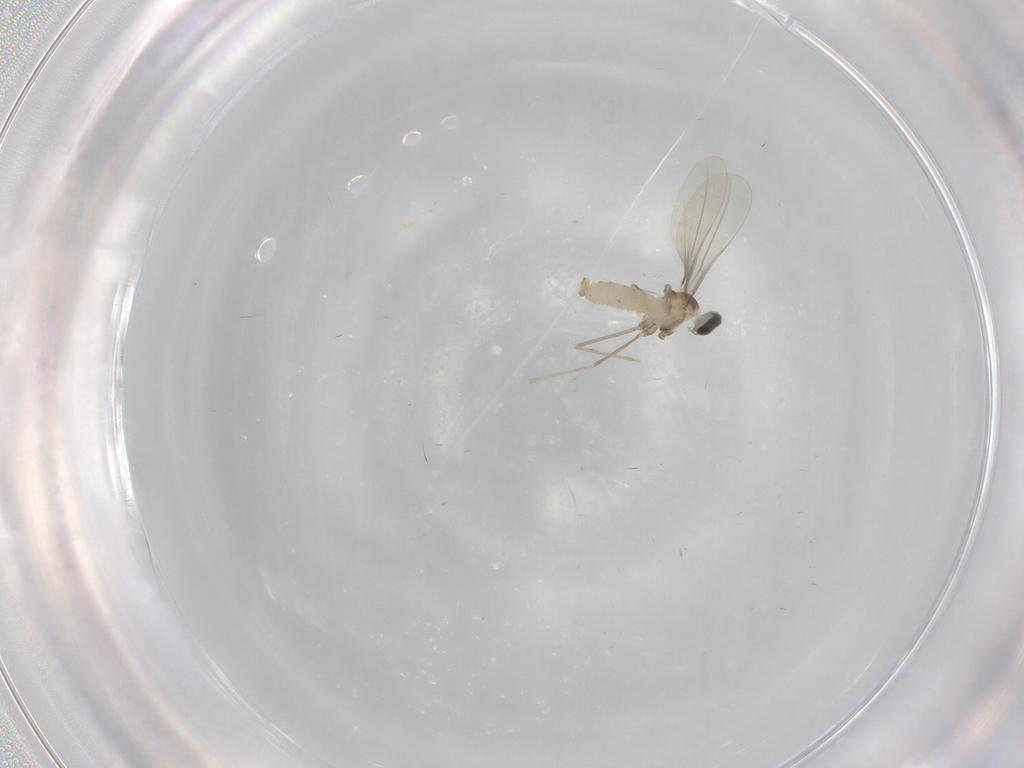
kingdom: Animalia
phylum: Arthropoda
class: Insecta
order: Diptera
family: Cecidomyiidae
